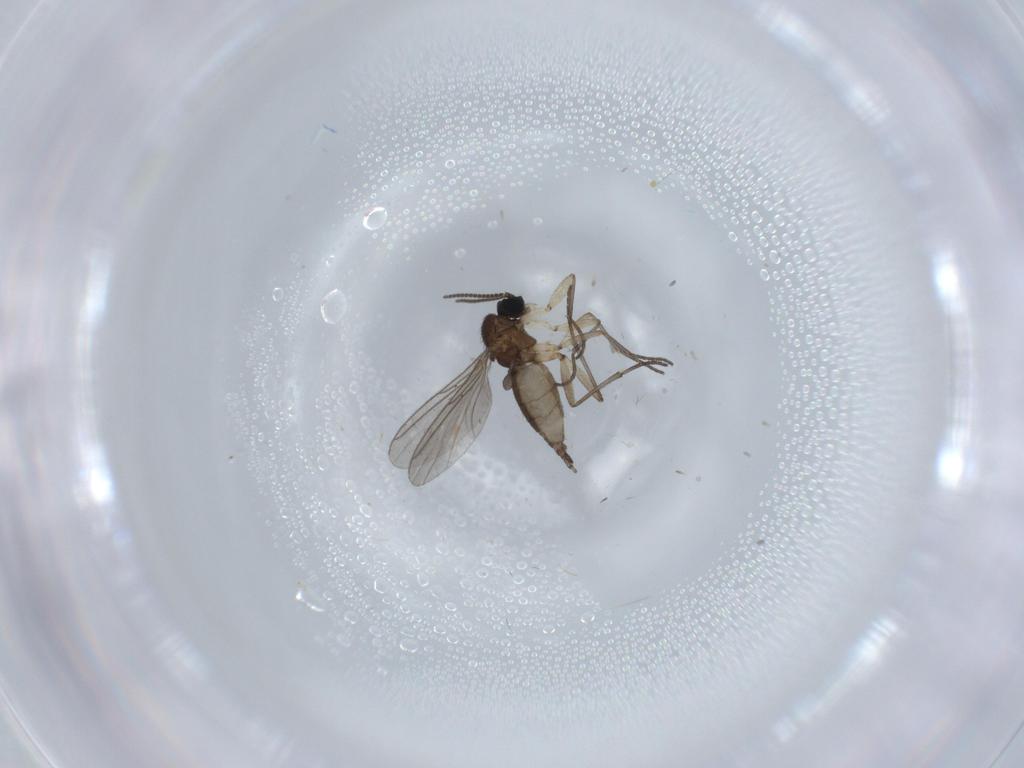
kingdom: Animalia
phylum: Arthropoda
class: Insecta
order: Diptera
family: Sciaridae
